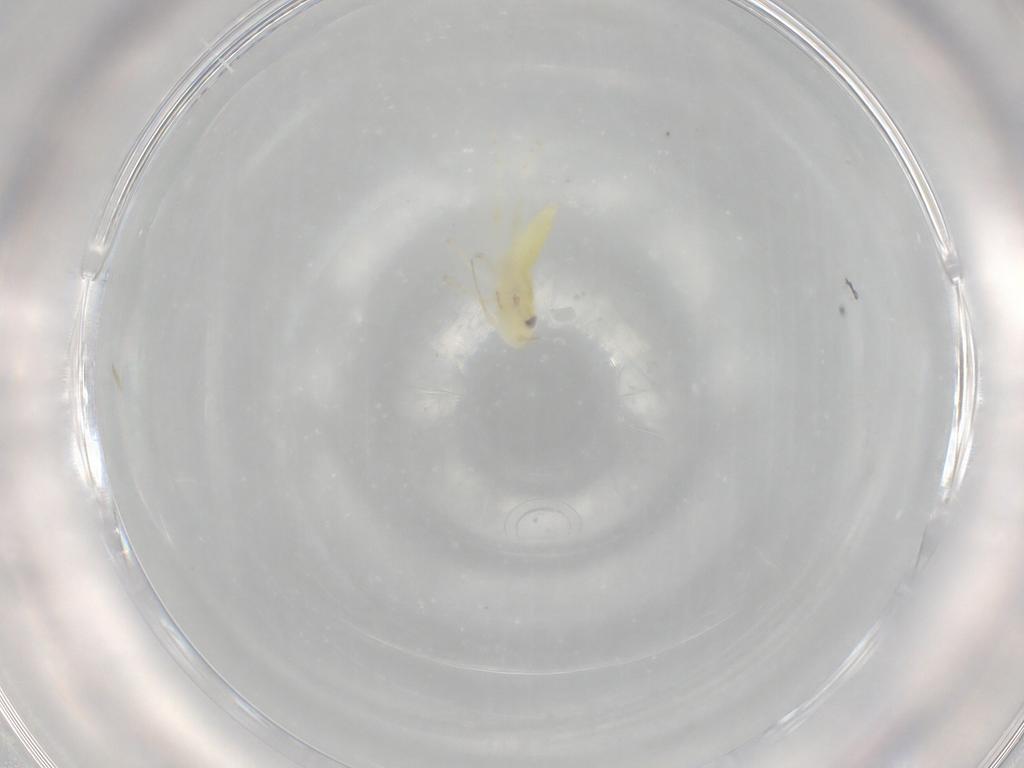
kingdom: Animalia
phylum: Arthropoda
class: Insecta
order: Hemiptera
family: Cicadellidae
